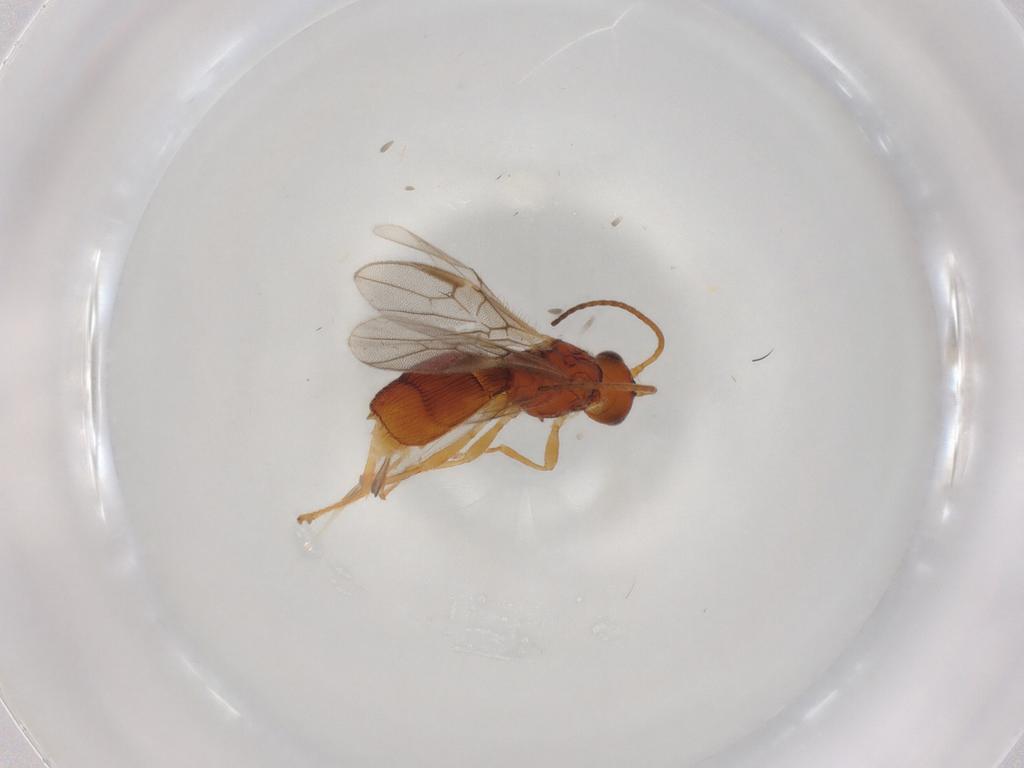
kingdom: Animalia
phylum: Arthropoda
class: Insecta
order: Hymenoptera
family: Braconidae
